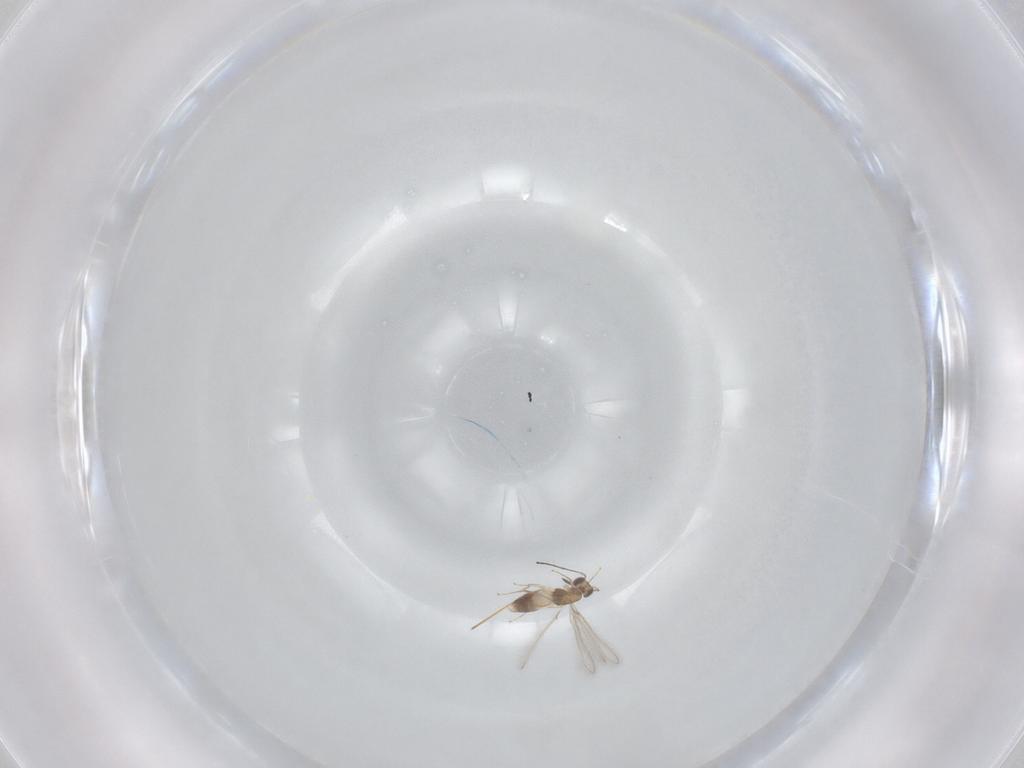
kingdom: Animalia
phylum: Arthropoda
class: Insecta
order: Hymenoptera
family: Mymaridae
